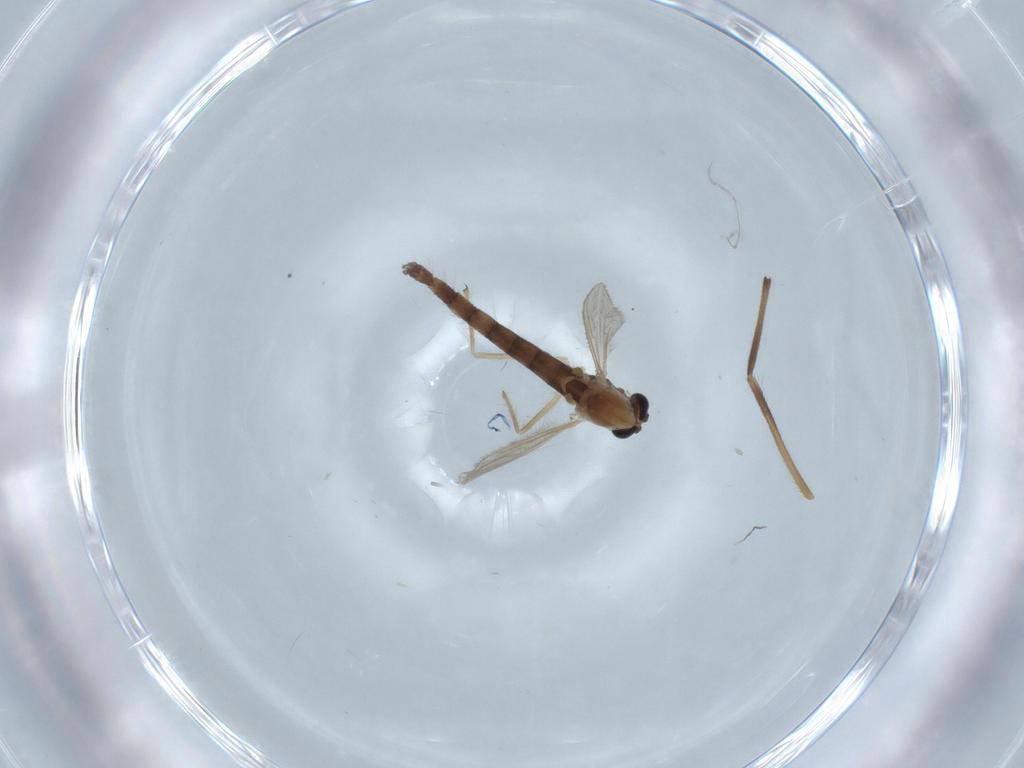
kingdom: Animalia
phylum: Arthropoda
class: Insecta
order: Diptera
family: Chironomidae
